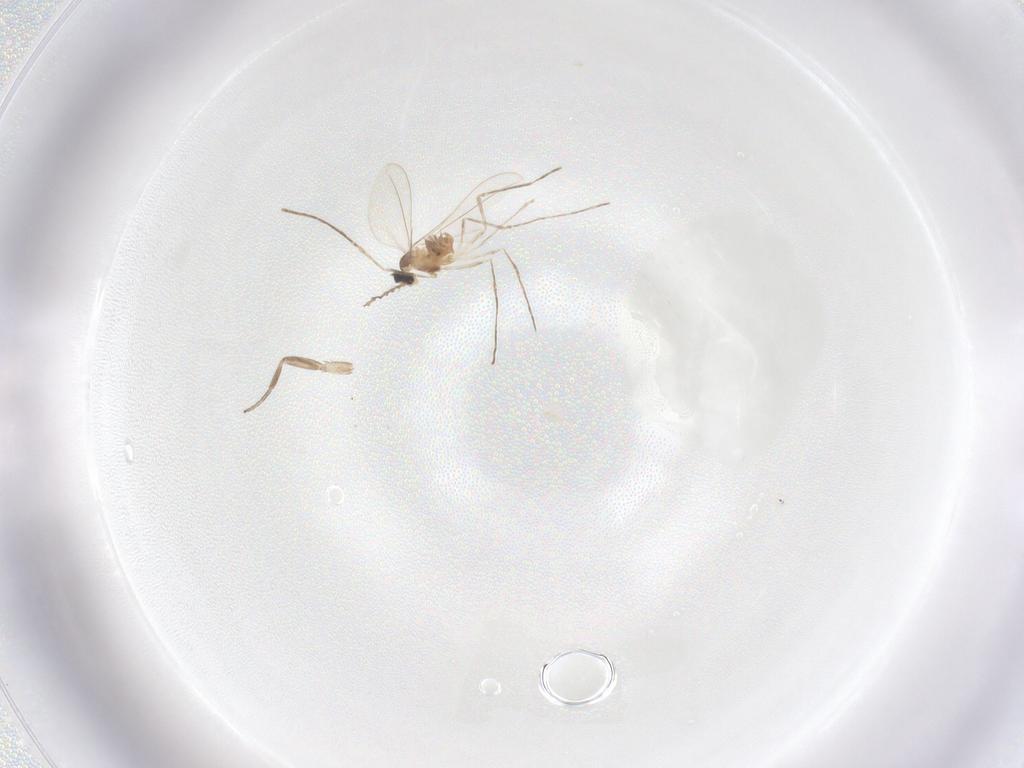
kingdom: Animalia
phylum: Arthropoda
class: Insecta
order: Diptera
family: Cecidomyiidae
